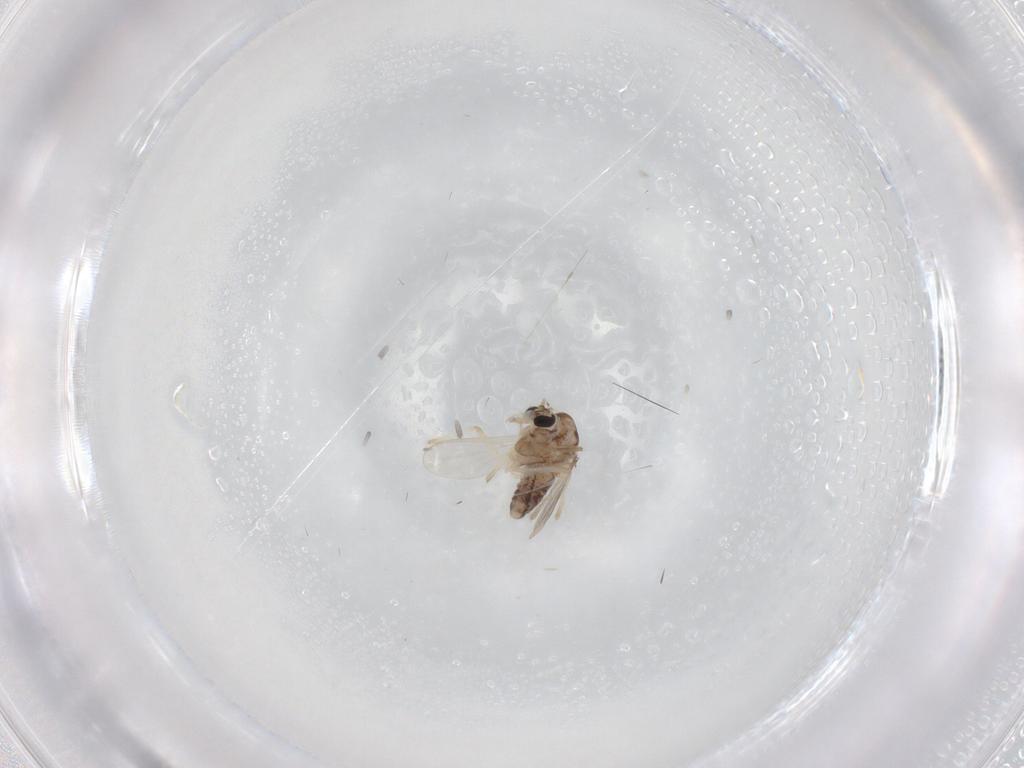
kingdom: Animalia
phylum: Arthropoda
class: Insecta
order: Diptera
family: Chironomidae
